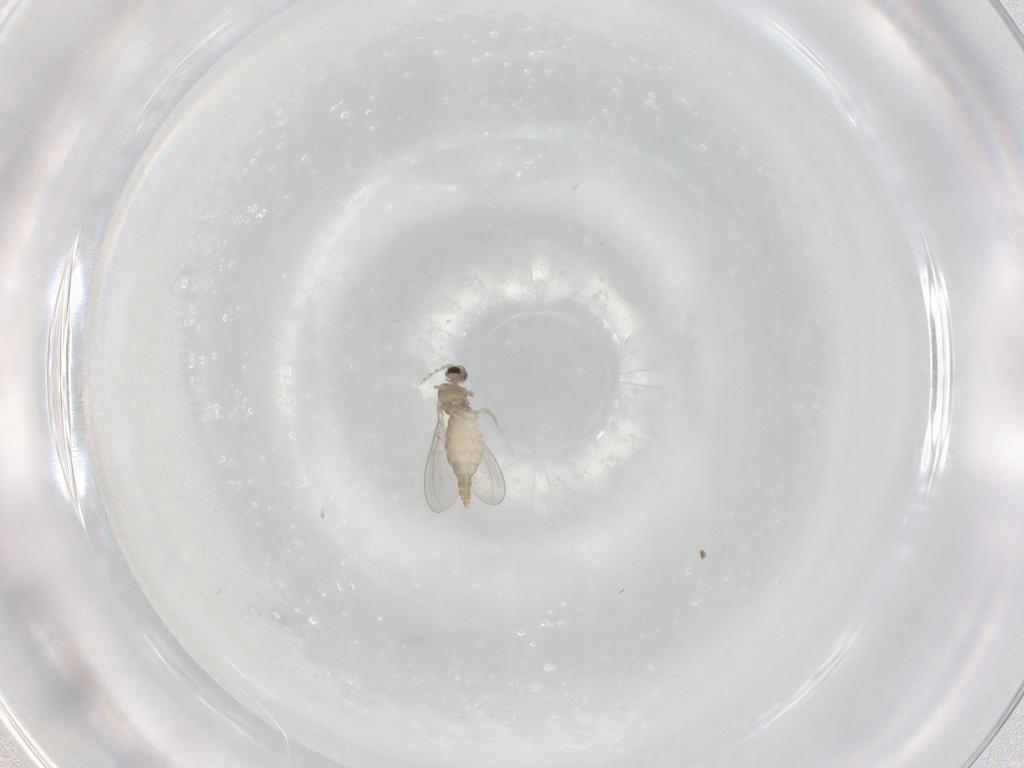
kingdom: Animalia
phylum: Arthropoda
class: Insecta
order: Diptera
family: Cecidomyiidae
